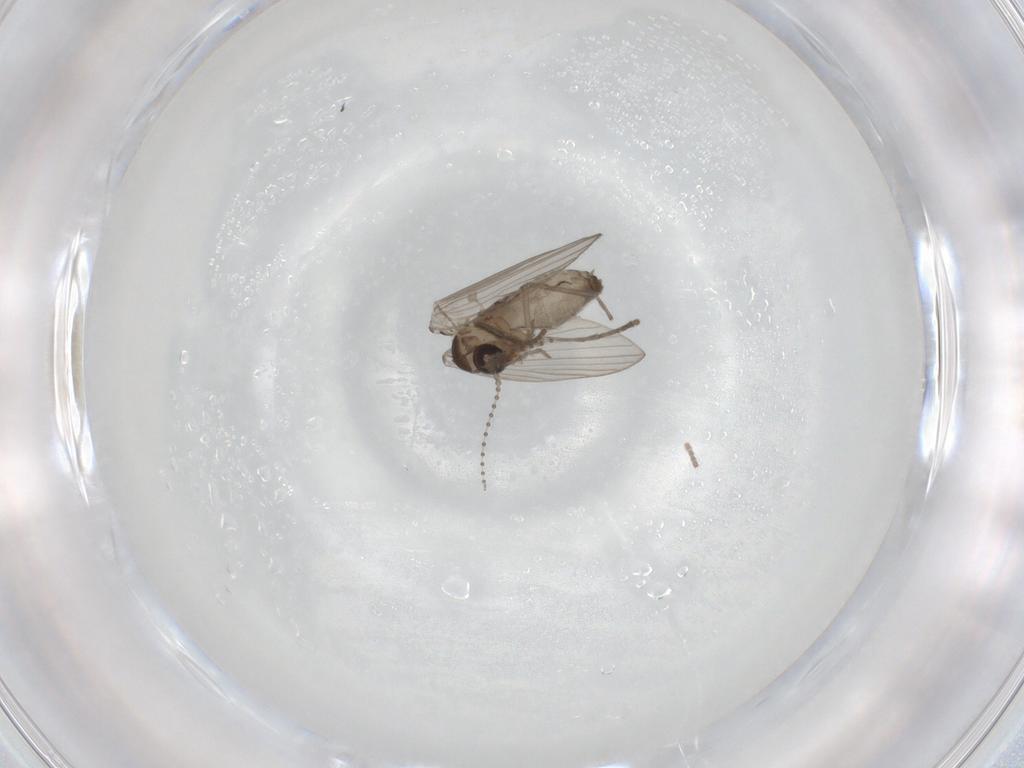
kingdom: Animalia
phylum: Arthropoda
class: Insecta
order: Diptera
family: Psychodidae
